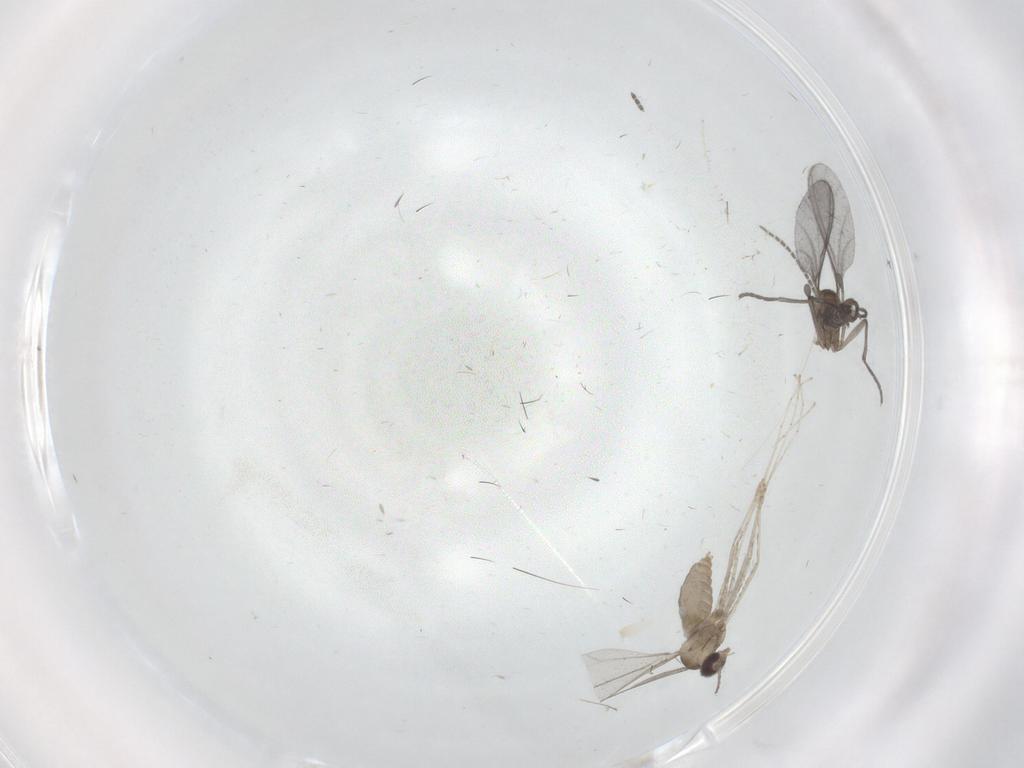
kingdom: Animalia
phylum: Arthropoda
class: Insecta
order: Diptera
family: Sciaridae
